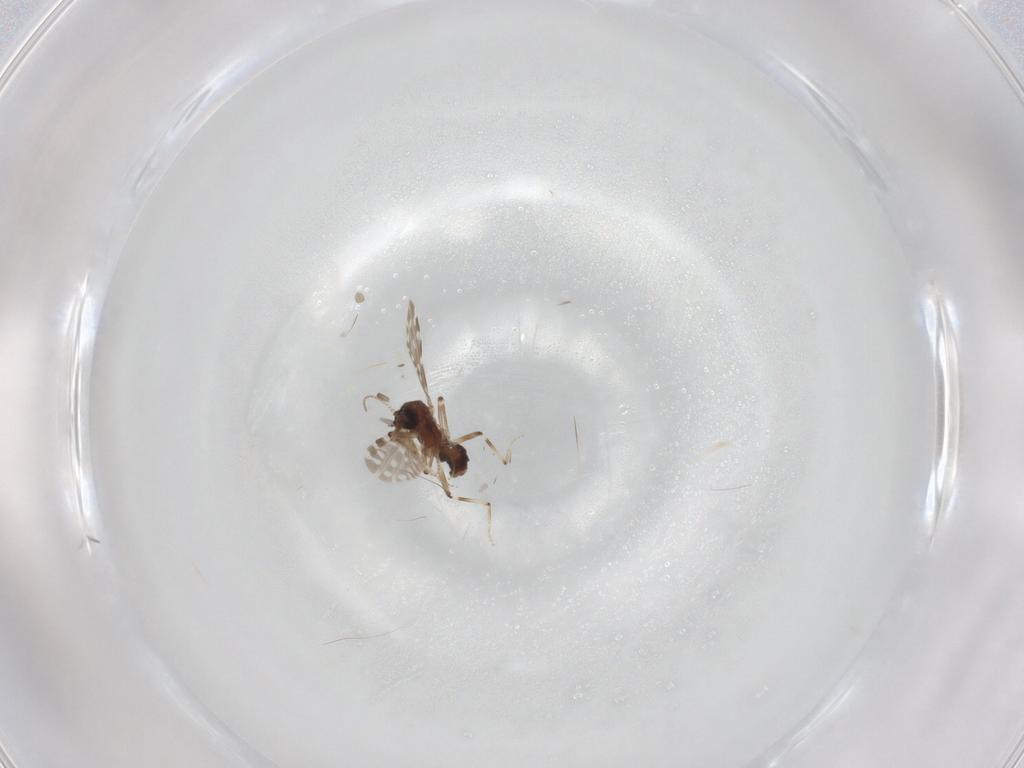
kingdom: Animalia
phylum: Arthropoda
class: Insecta
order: Diptera
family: Ceratopogonidae
